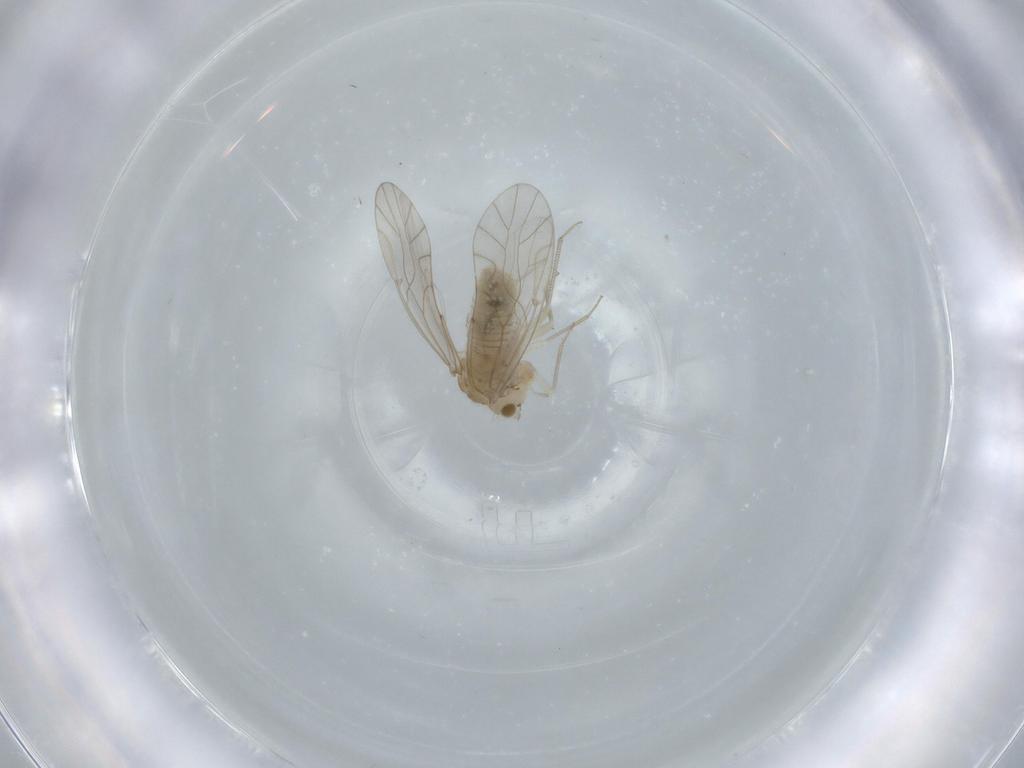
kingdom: Animalia
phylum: Arthropoda
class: Insecta
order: Psocodea
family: Lachesillidae
